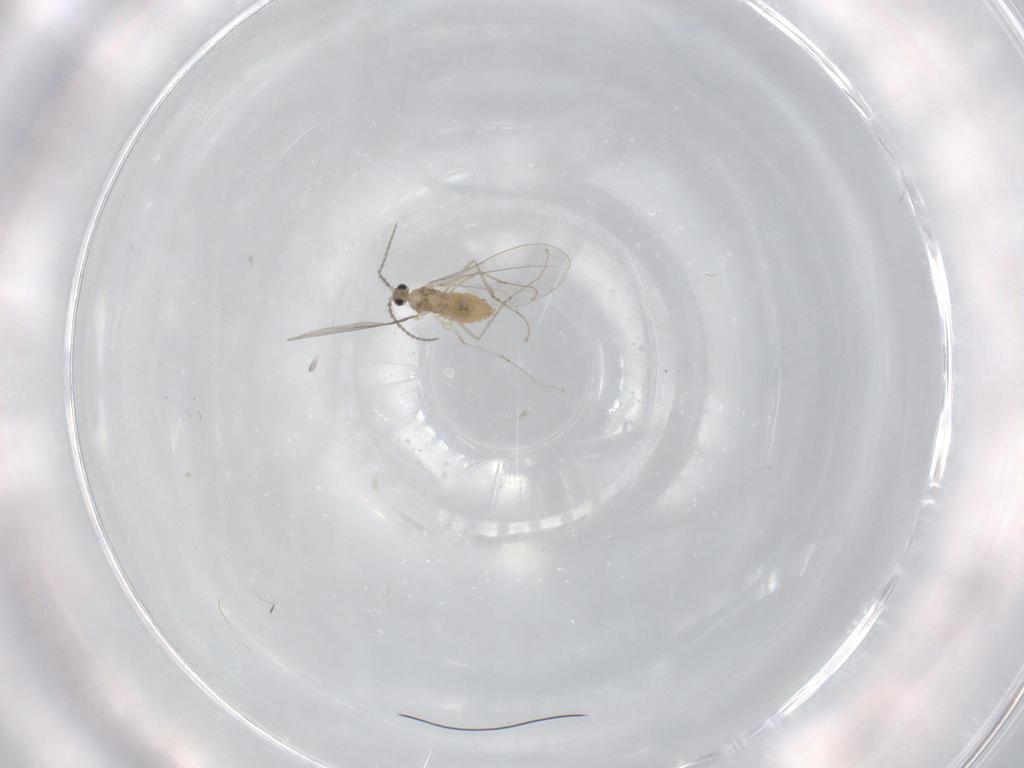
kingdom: Animalia
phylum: Arthropoda
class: Insecta
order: Diptera
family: Cecidomyiidae
